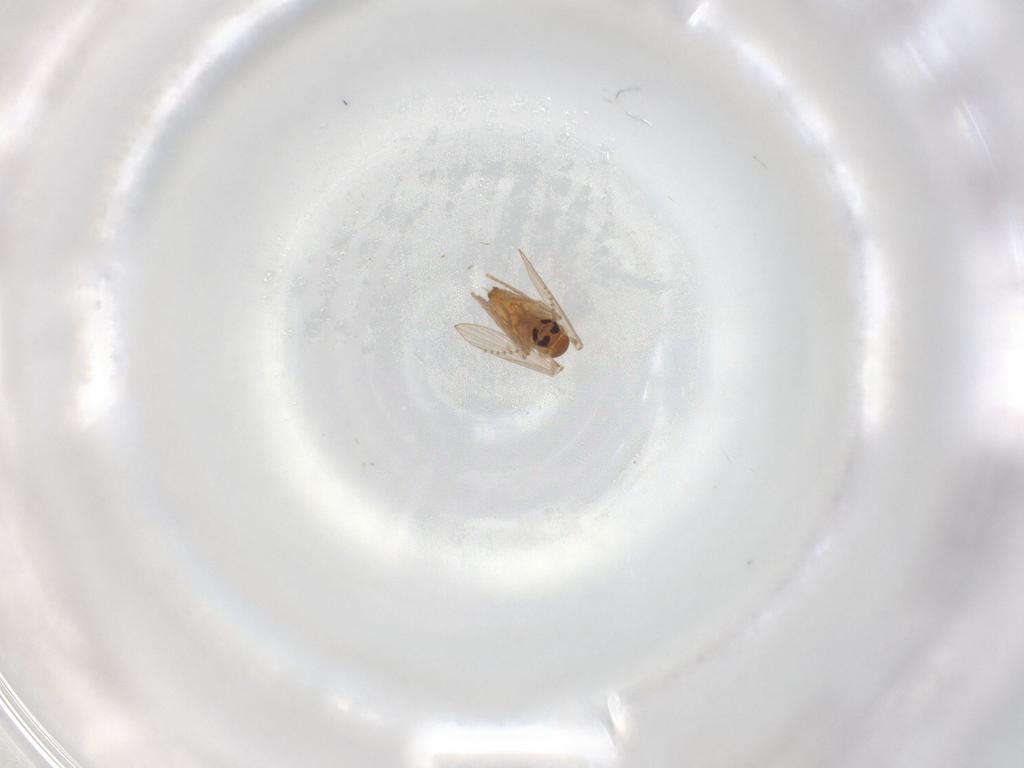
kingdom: Animalia
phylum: Arthropoda
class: Insecta
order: Diptera
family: Psychodidae
